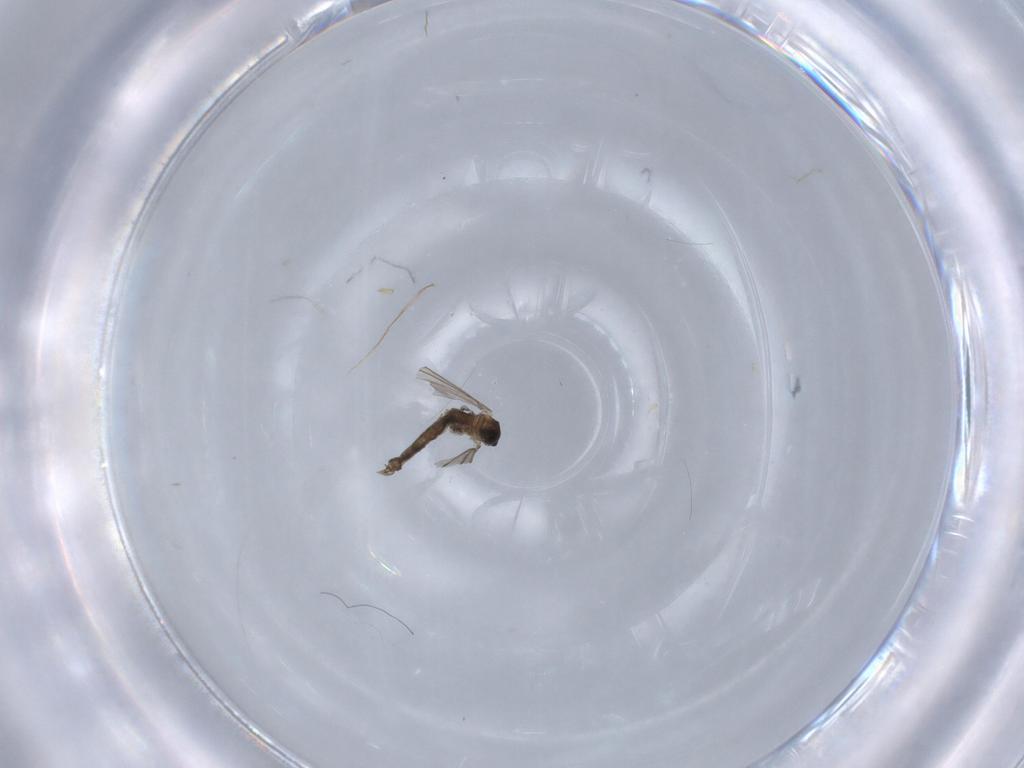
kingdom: Animalia
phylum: Arthropoda
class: Insecta
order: Diptera
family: Cecidomyiidae
